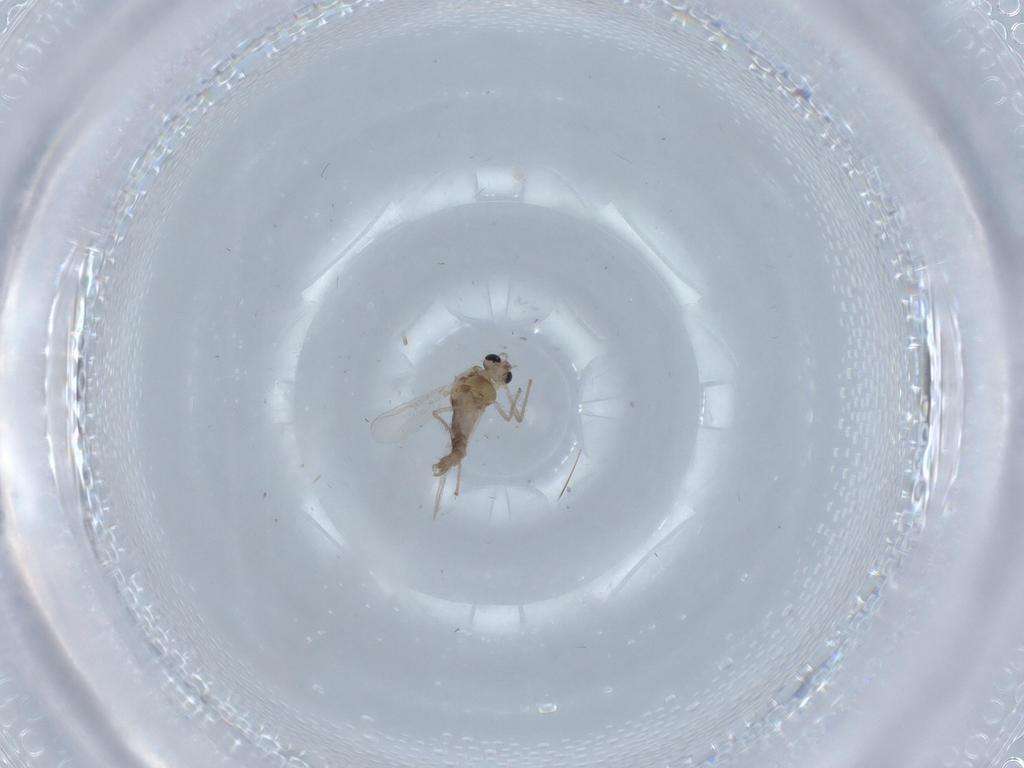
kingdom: Animalia
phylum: Arthropoda
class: Insecta
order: Diptera
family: Chironomidae
